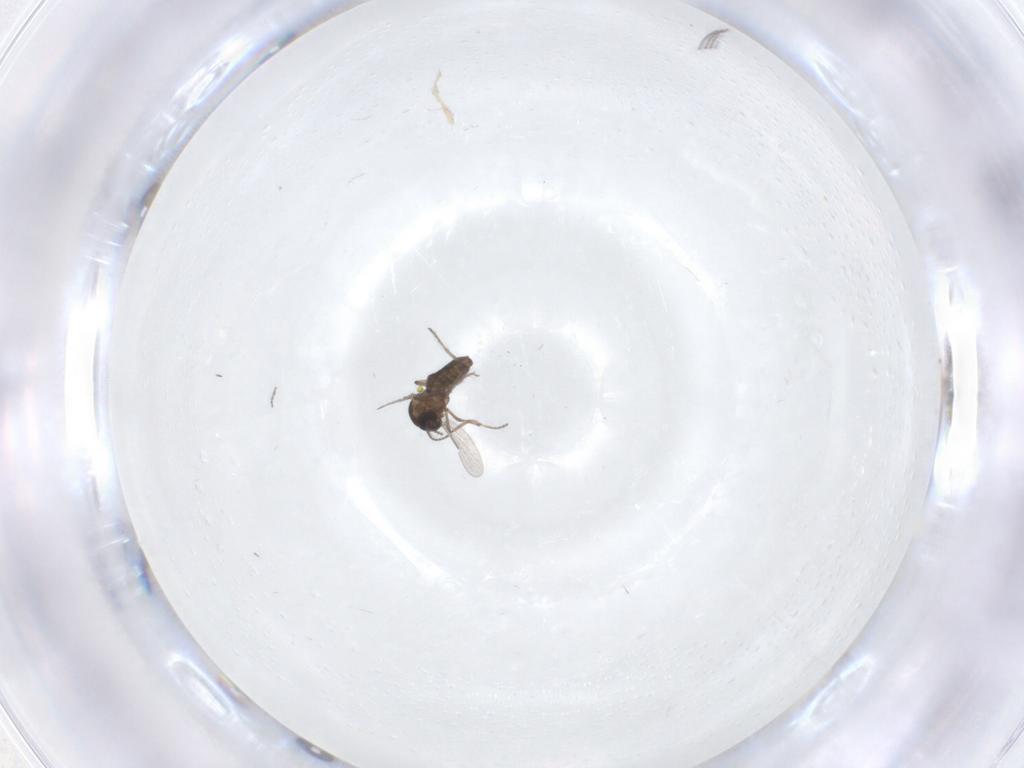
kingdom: Animalia
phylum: Arthropoda
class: Insecta
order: Diptera
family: Ceratopogonidae
